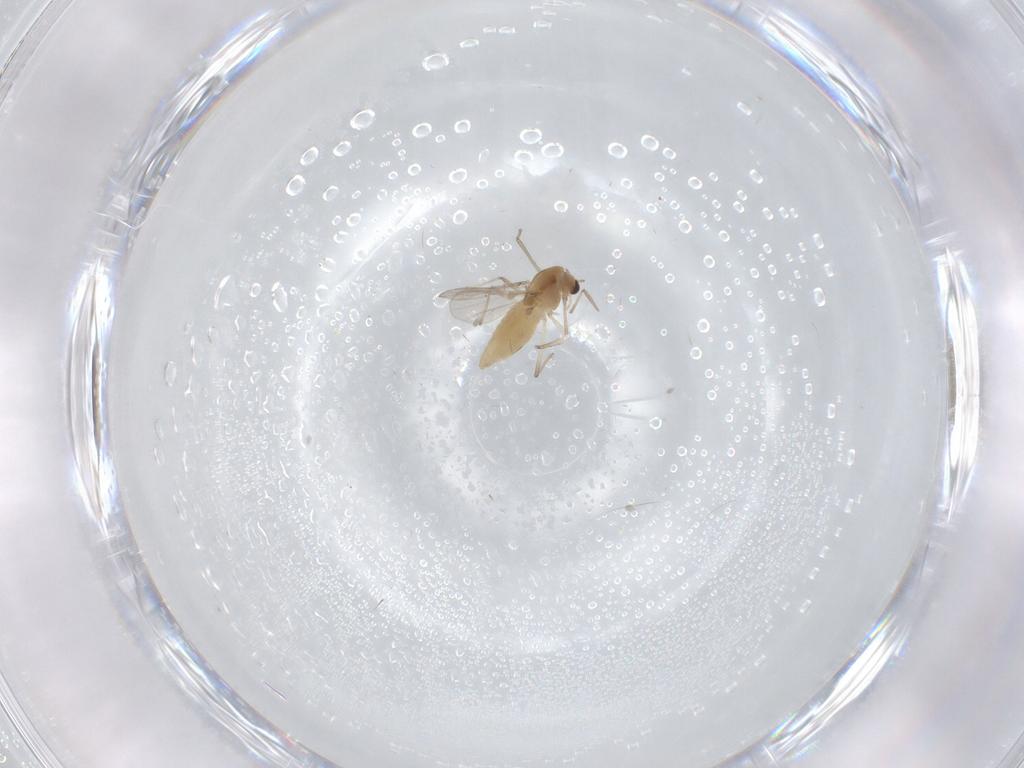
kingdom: Animalia
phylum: Arthropoda
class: Insecta
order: Diptera
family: Chironomidae
